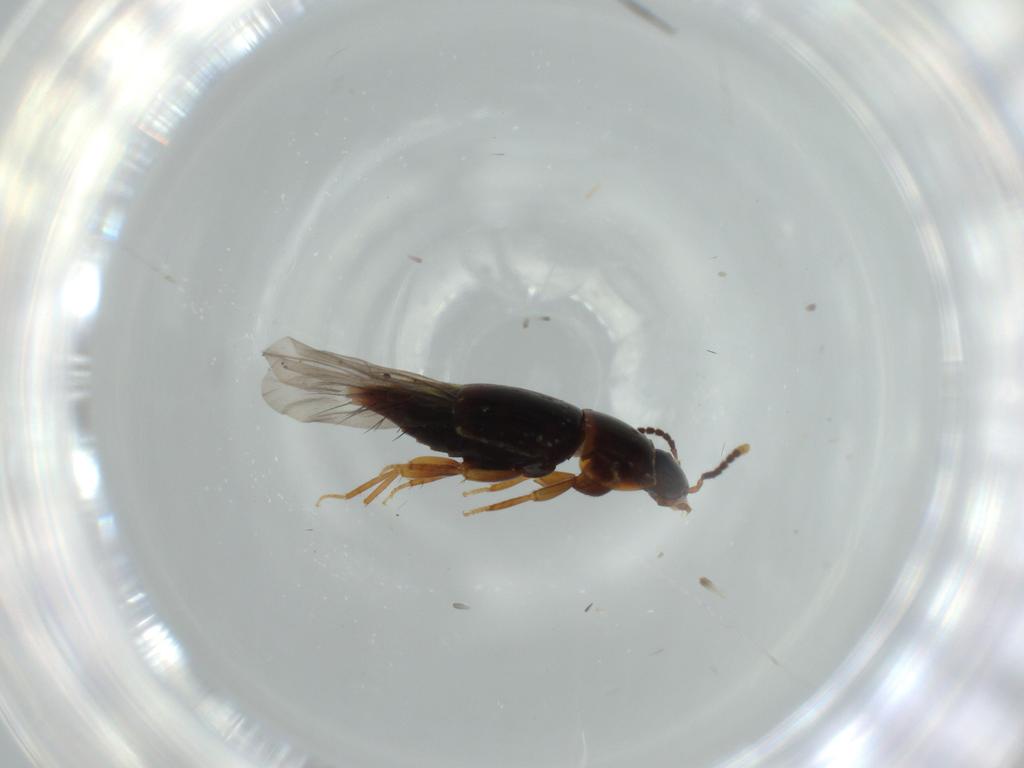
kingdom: Animalia
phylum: Arthropoda
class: Insecta
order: Coleoptera
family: Staphylinidae
